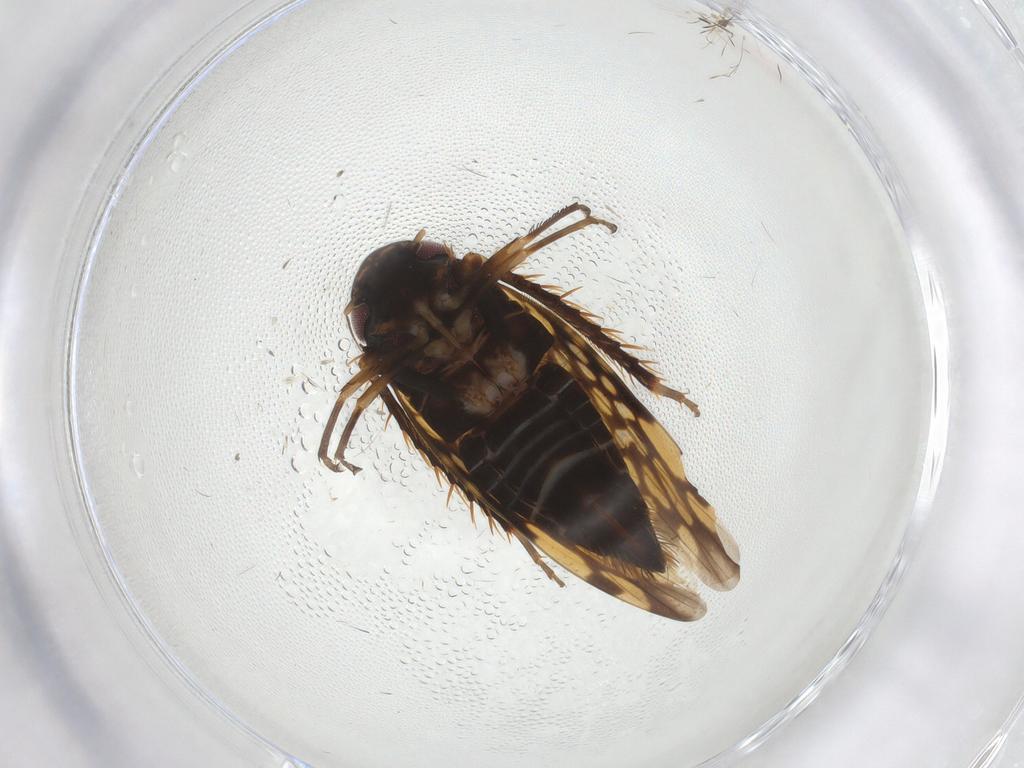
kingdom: Animalia
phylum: Arthropoda
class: Insecta
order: Hemiptera
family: Cicadellidae
